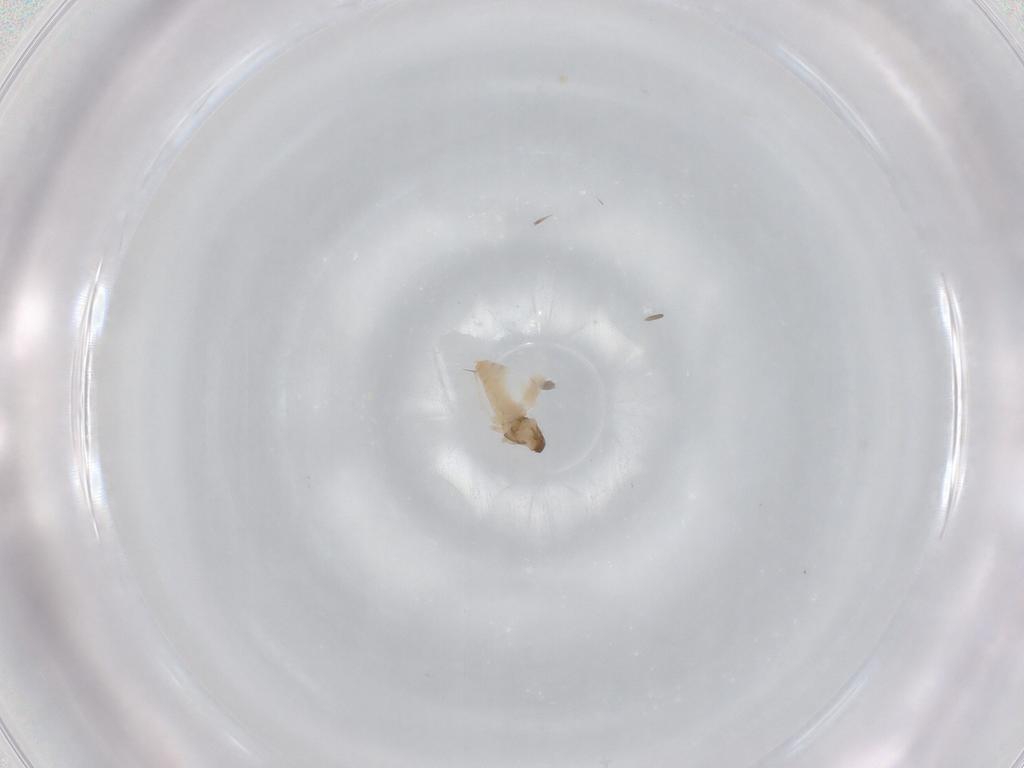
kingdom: Animalia
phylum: Arthropoda
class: Insecta
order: Diptera
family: Cecidomyiidae
